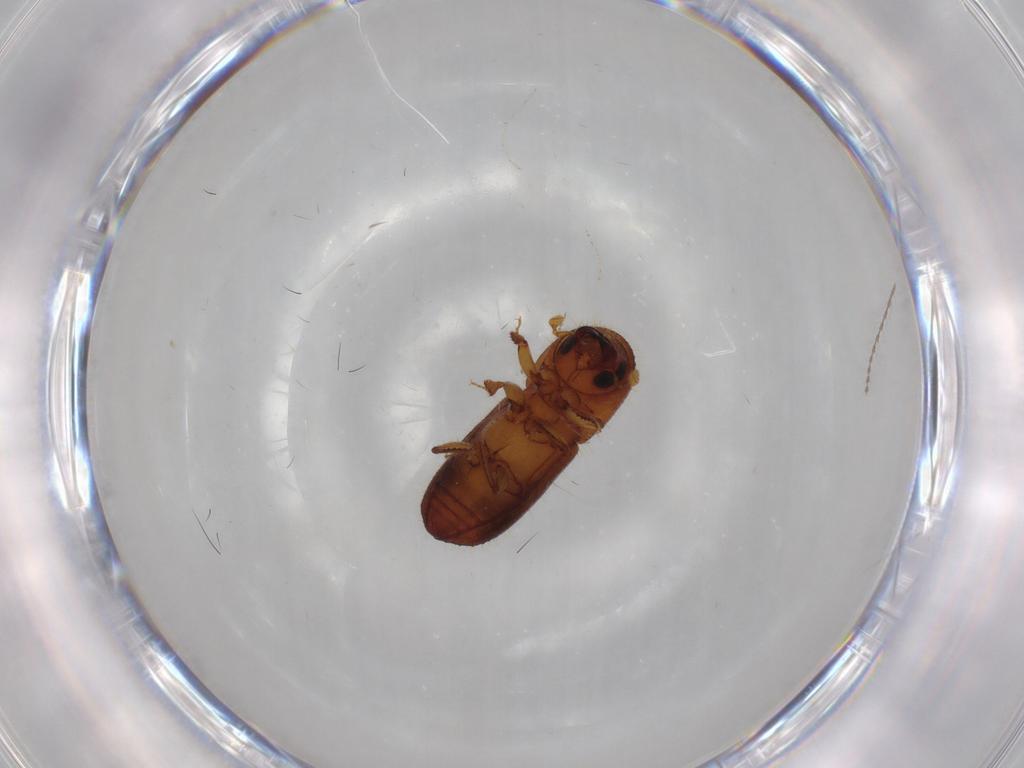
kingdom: Animalia
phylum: Arthropoda
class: Insecta
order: Coleoptera
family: Curculionidae
